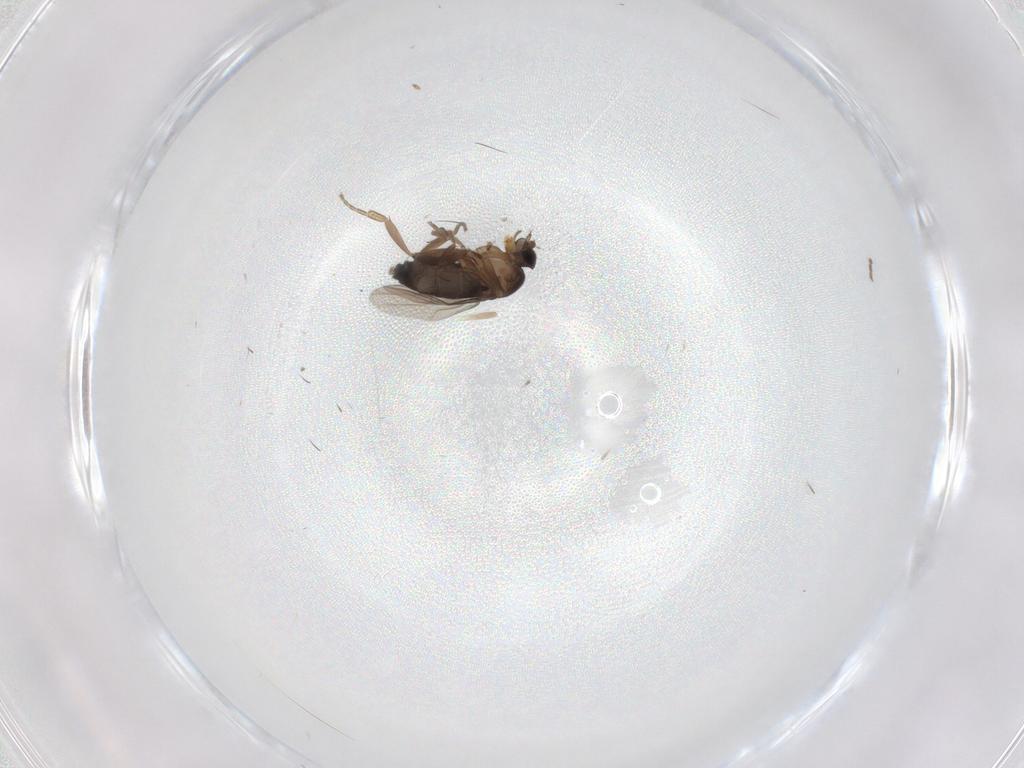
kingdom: Animalia
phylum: Arthropoda
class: Insecta
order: Diptera
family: Phoridae
